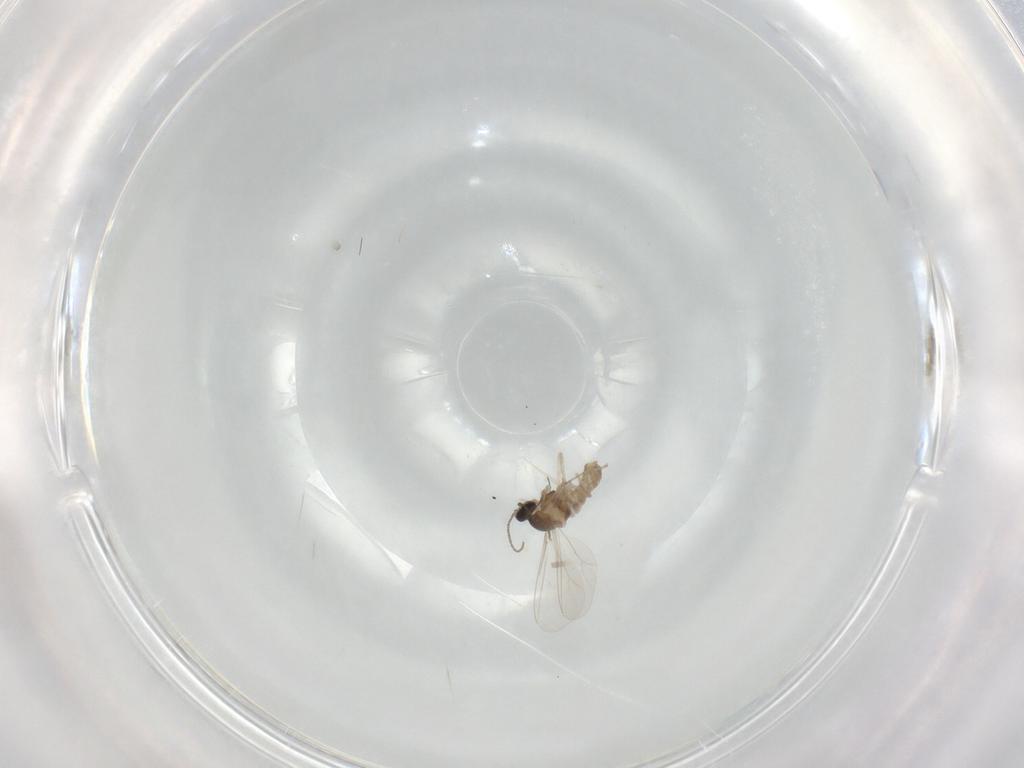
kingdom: Animalia
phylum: Arthropoda
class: Insecta
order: Diptera
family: Cecidomyiidae
